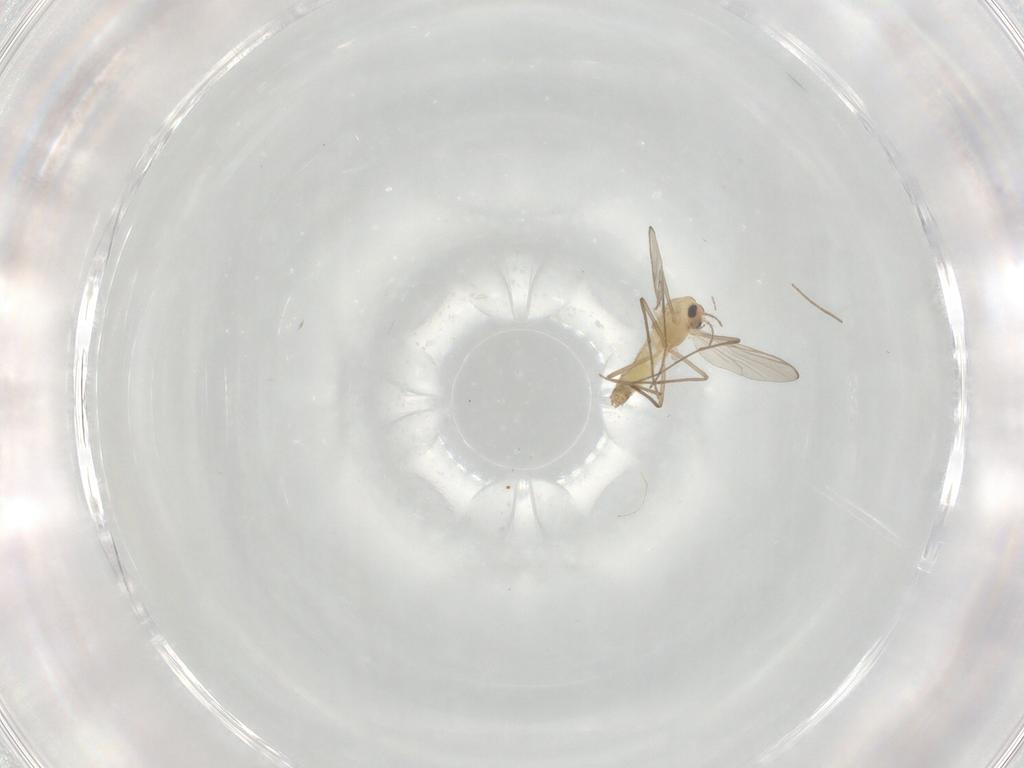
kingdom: Animalia
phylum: Arthropoda
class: Insecta
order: Diptera
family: Chironomidae
